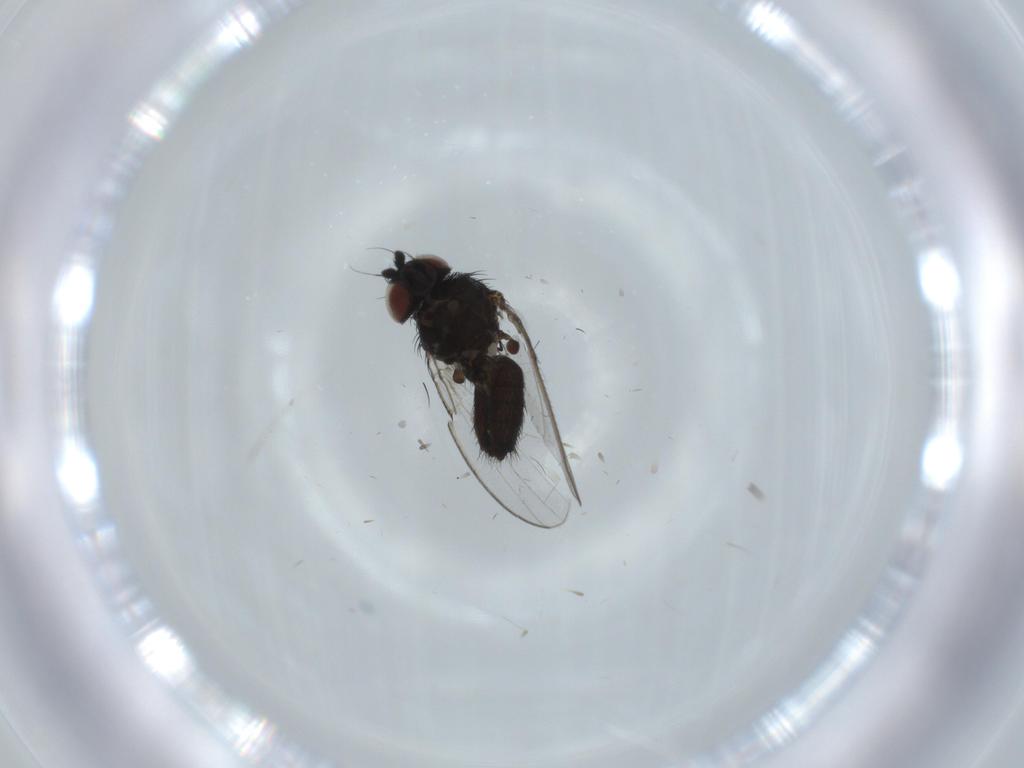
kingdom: Animalia
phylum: Arthropoda
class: Insecta
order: Diptera
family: Milichiidae
